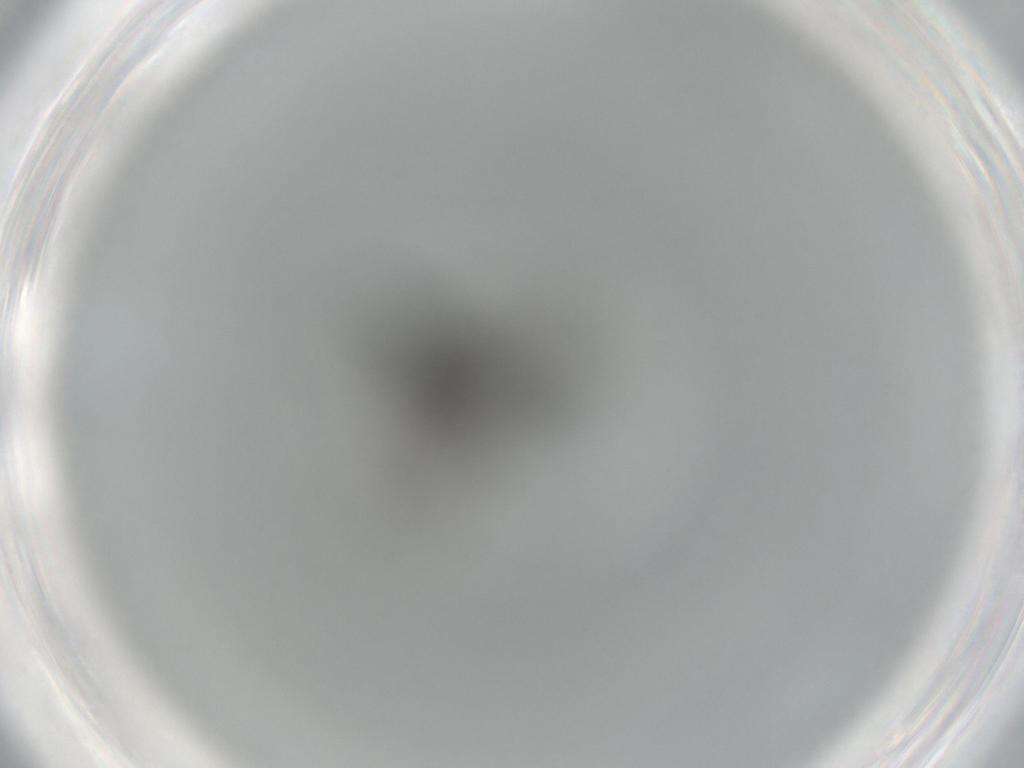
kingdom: Animalia
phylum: Arthropoda
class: Insecta
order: Diptera
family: Sciaridae
